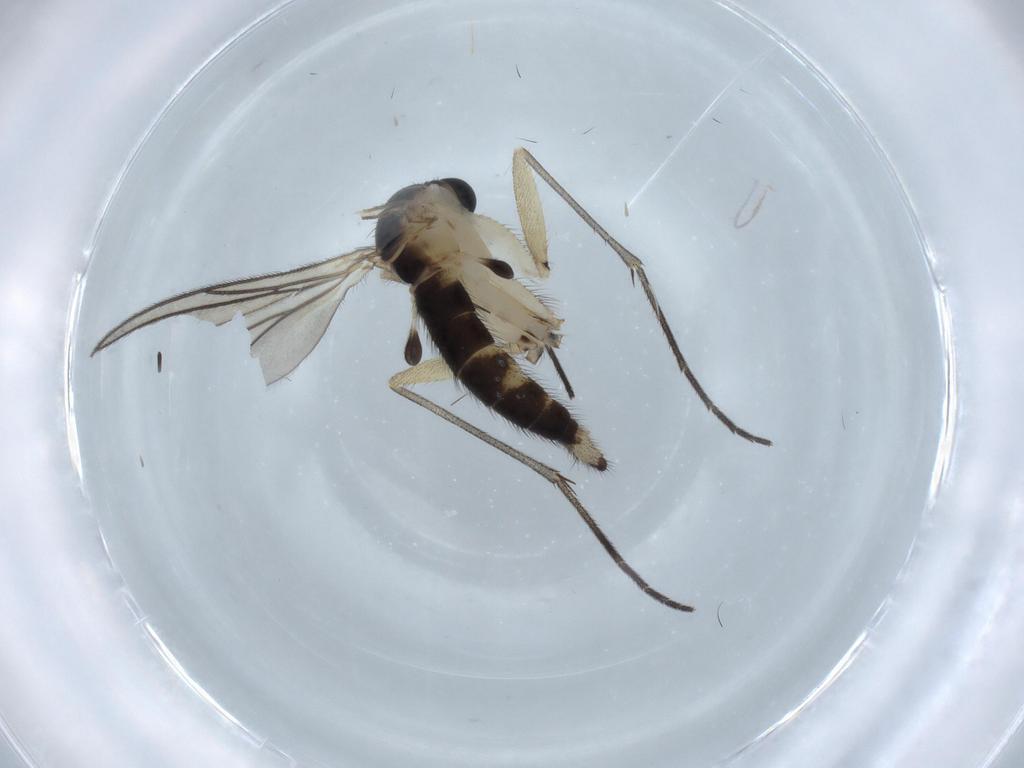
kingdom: Animalia
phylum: Arthropoda
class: Insecta
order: Diptera
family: Sciaridae
